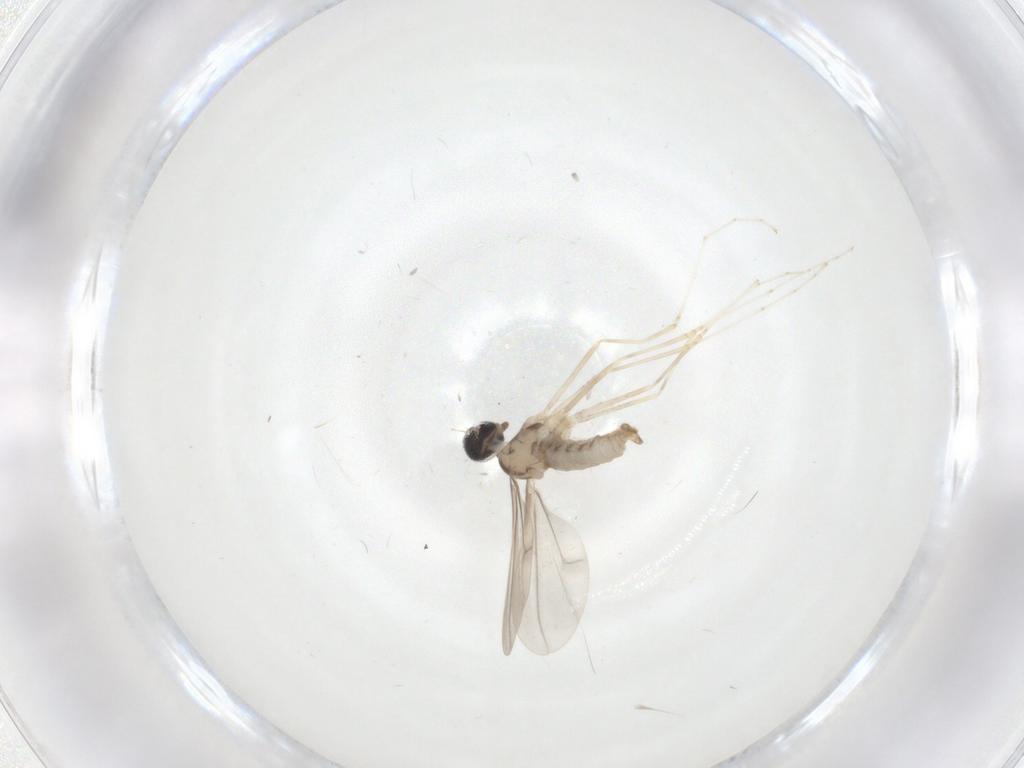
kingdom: Animalia
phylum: Arthropoda
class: Insecta
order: Diptera
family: Cecidomyiidae
